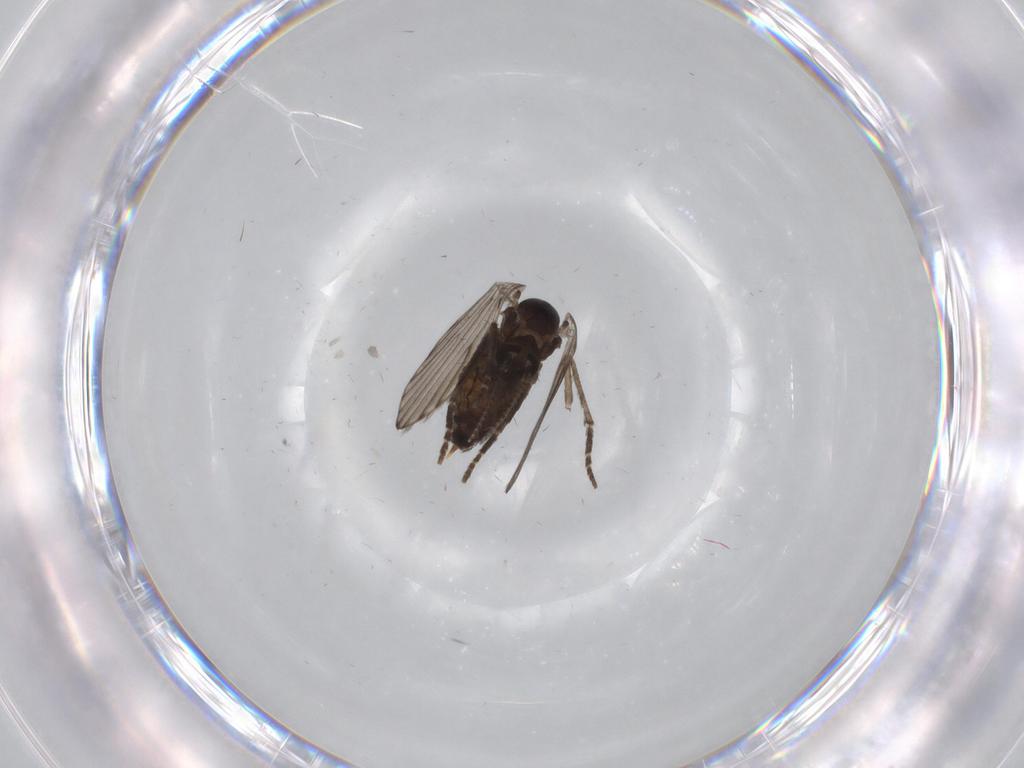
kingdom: Animalia
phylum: Arthropoda
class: Insecta
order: Diptera
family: Psychodidae
